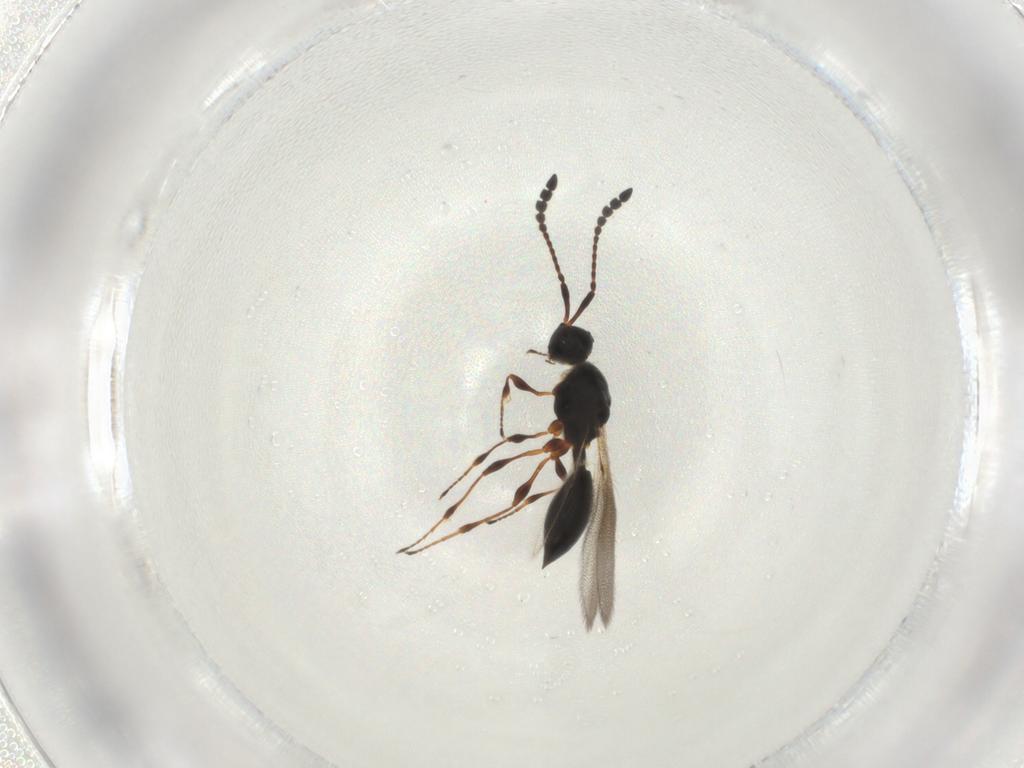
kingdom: Animalia
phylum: Arthropoda
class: Insecta
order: Hymenoptera
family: Diapriidae
